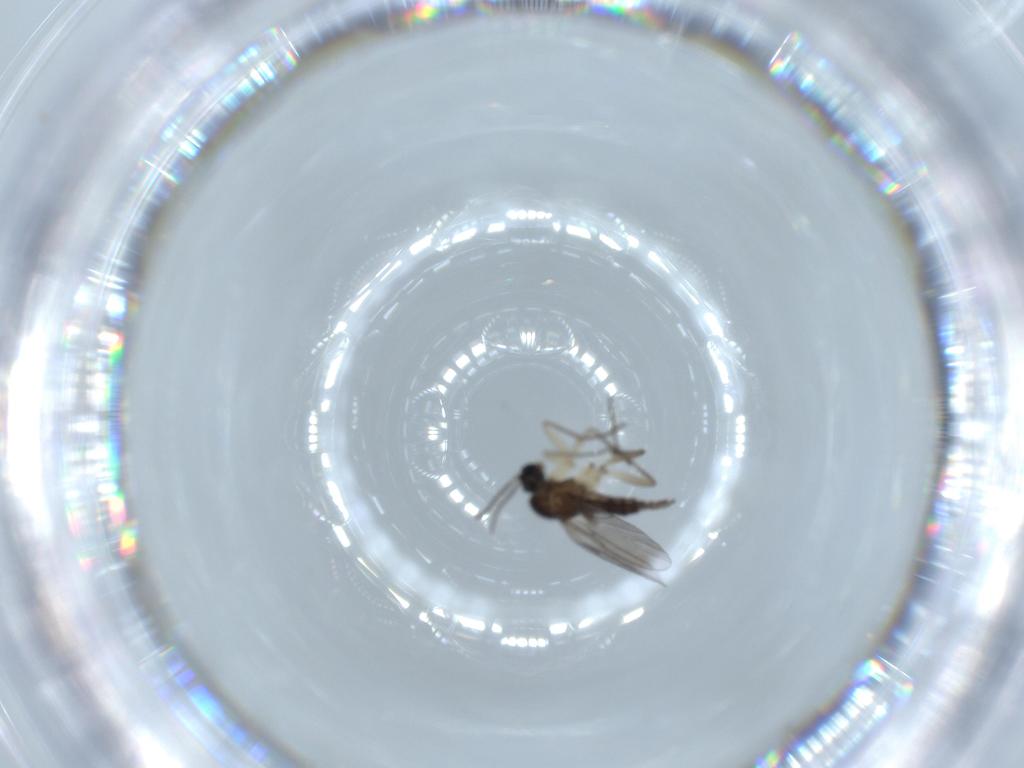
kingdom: Animalia
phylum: Arthropoda
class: Insecta
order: Diptera
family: Sciaridae
